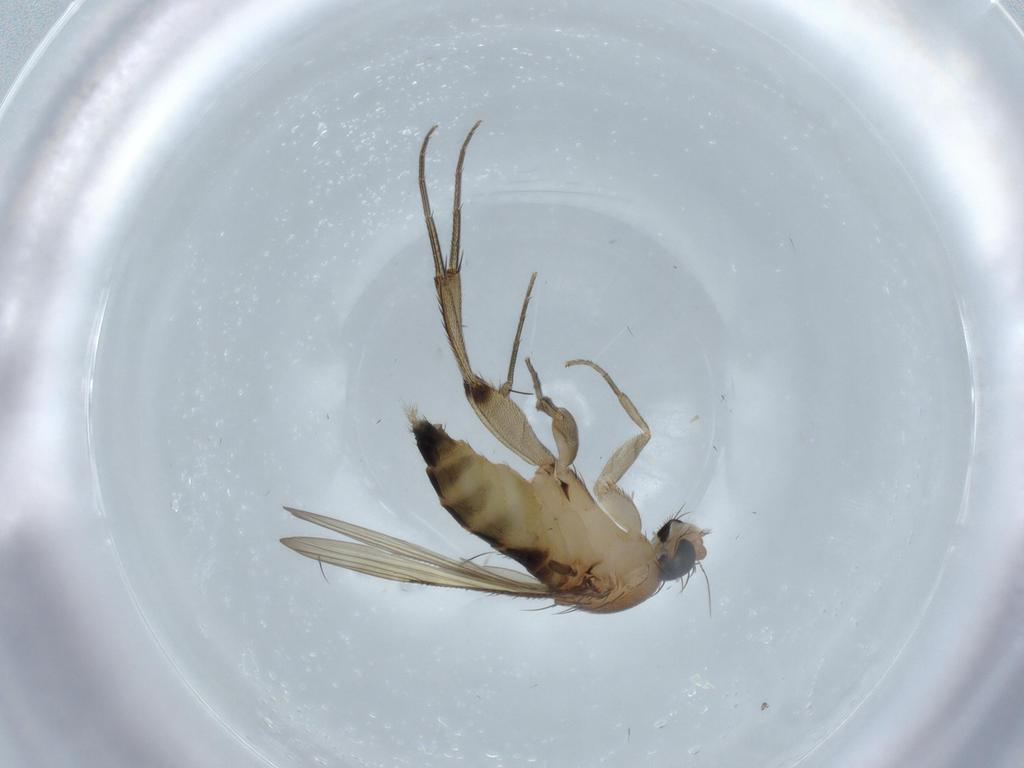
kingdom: Animalia
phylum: Arthropoda
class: Insecta
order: Diptera
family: Phoridae
